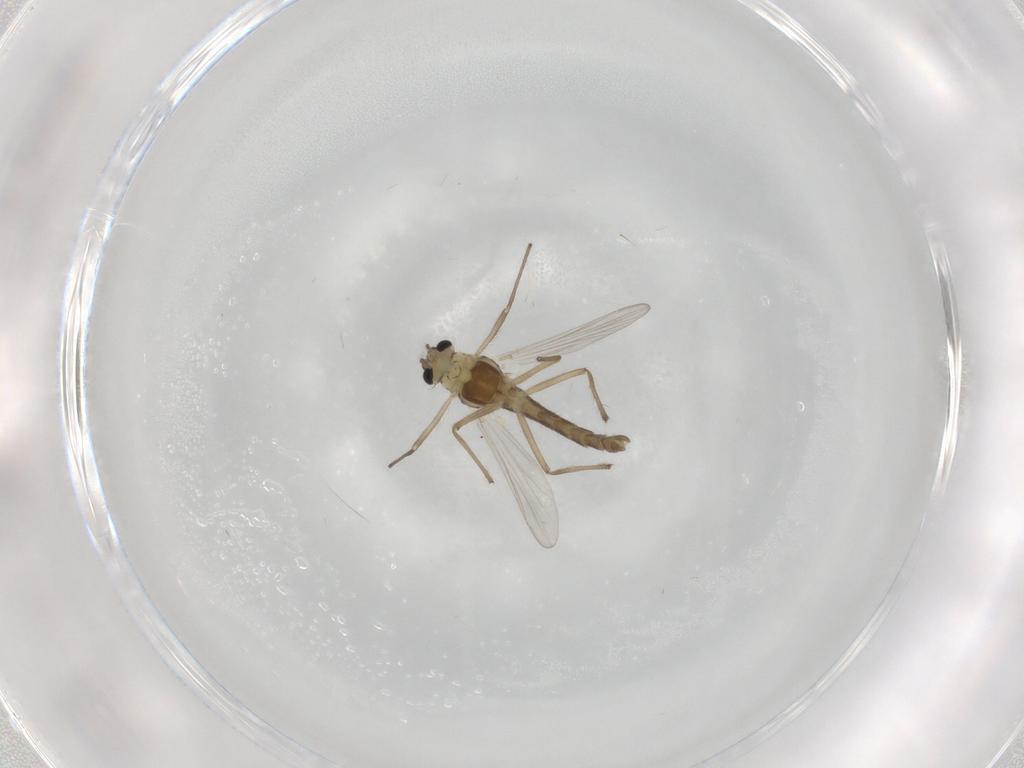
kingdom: Animalia
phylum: Arthropoda
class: Insecta
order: Diptera
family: Chironomidae
